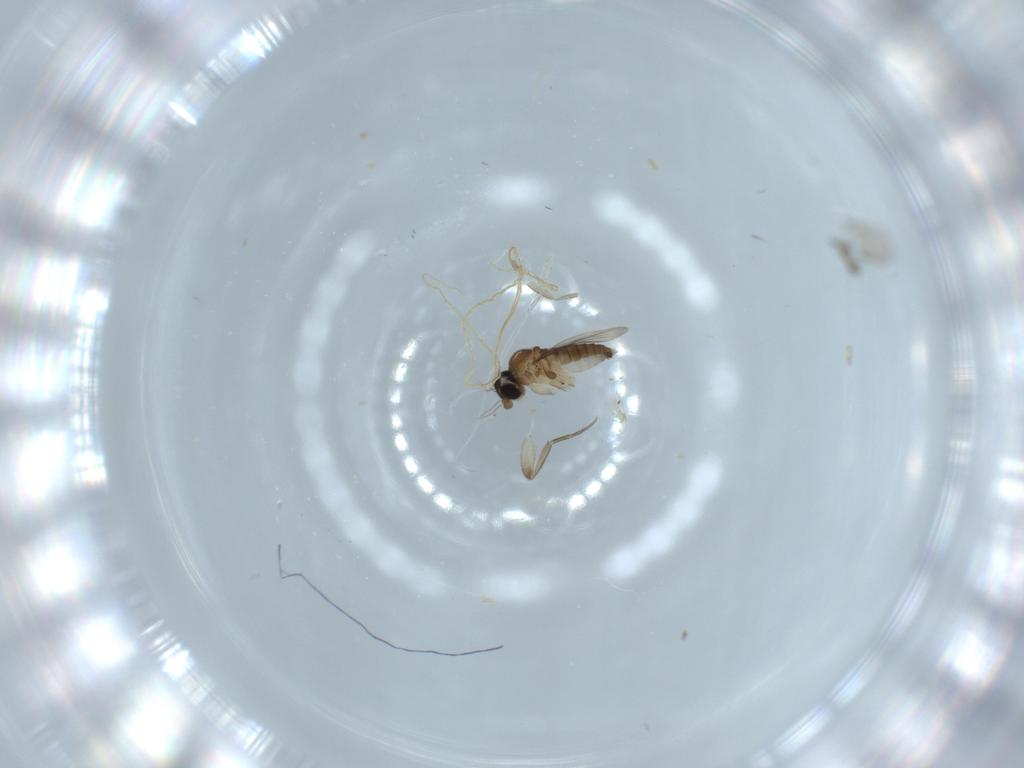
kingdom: Animalia
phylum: Arthropoda
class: Insecta
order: Diptera
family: Phoridae
